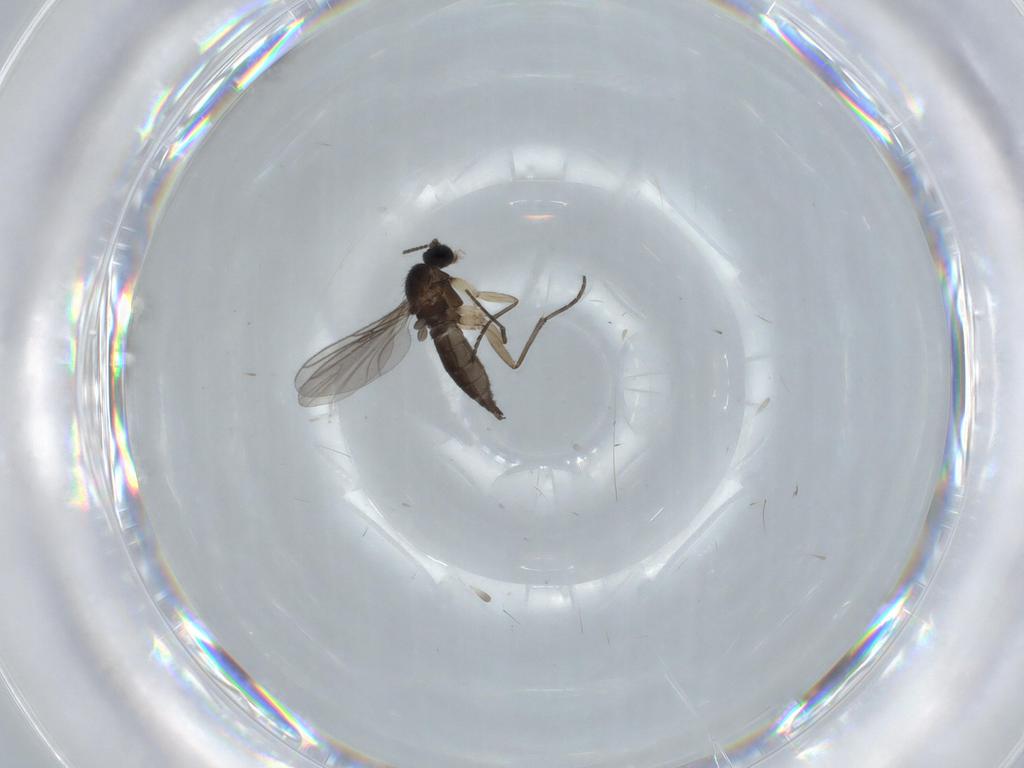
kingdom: Animalia
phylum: Arthropoda
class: Insecta
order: Diptera
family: Sciaridae
